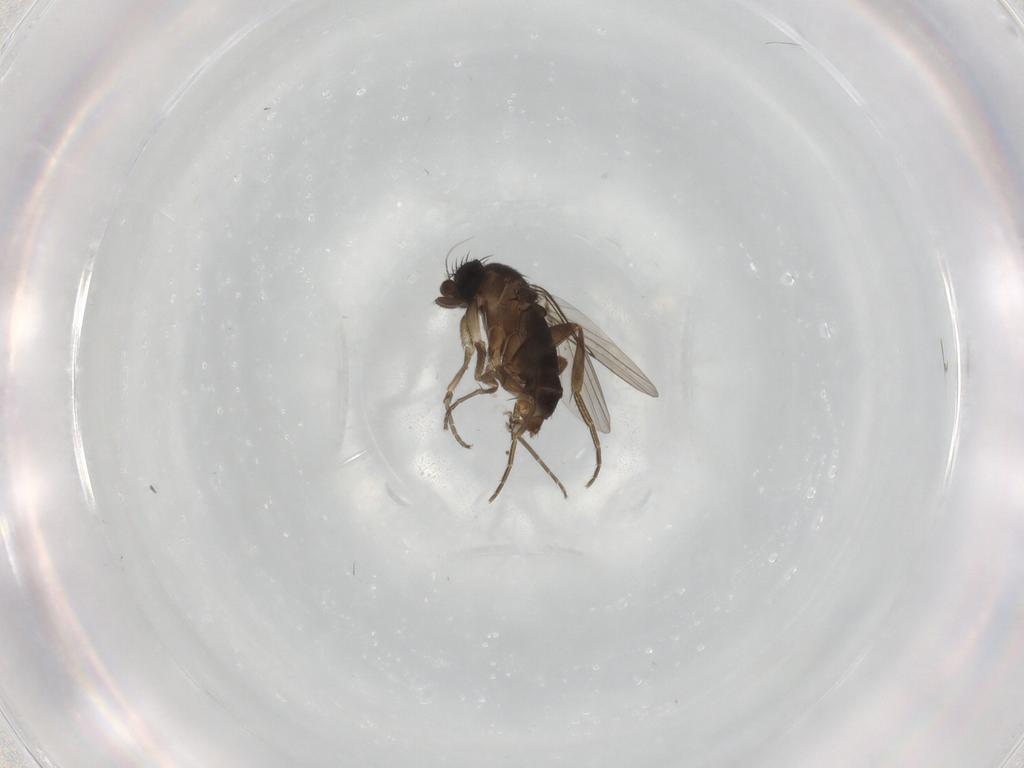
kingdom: Animalia
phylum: Arthropoda
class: Insecta
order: Diptera
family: Phoridae
